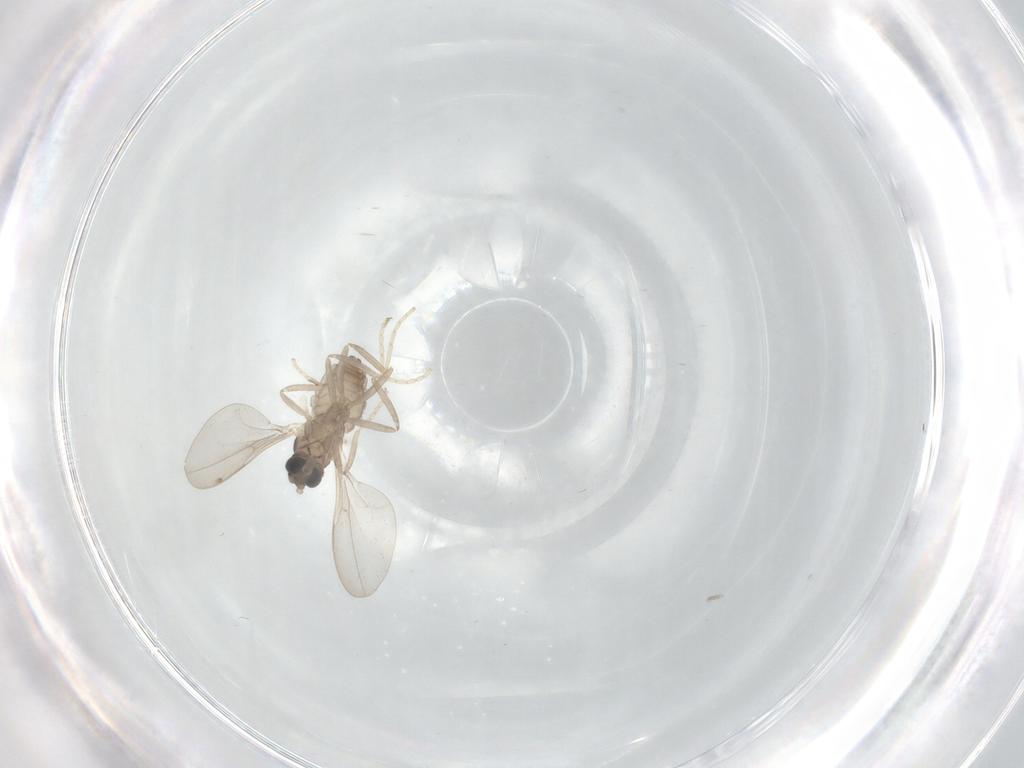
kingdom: Animalia
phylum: Arthropoda
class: Insecta
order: Diptera
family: Cecidomyiidae
